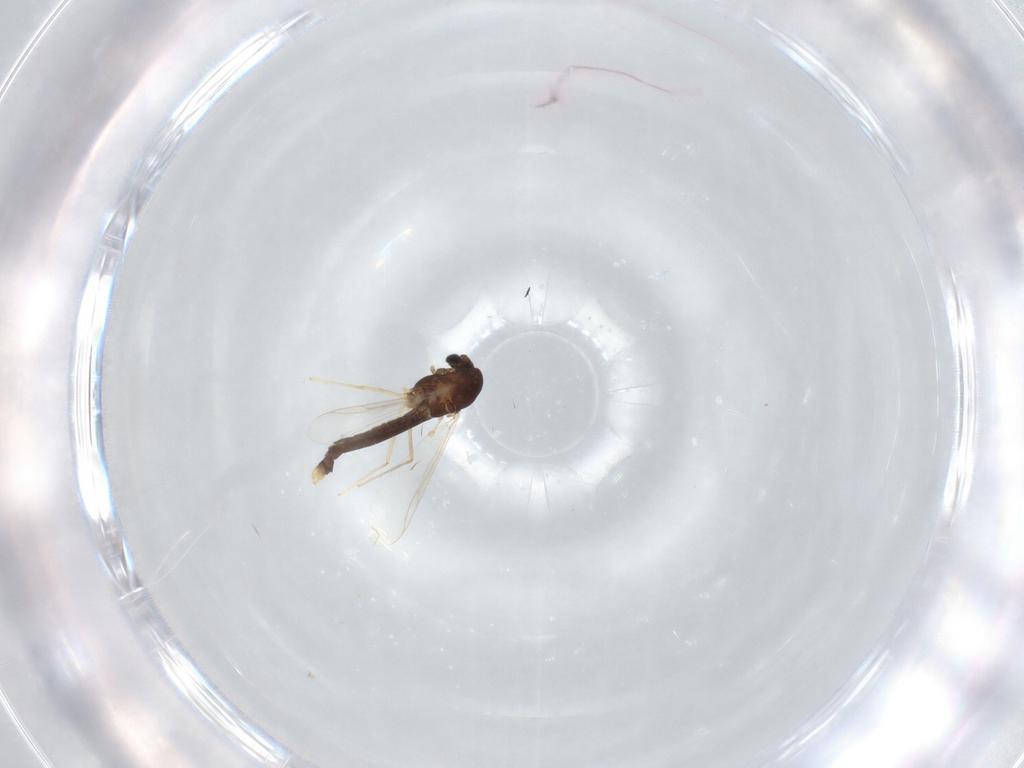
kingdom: Animalia
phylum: Arthropoda
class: Insecta
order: Diptera
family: Chironomidae
